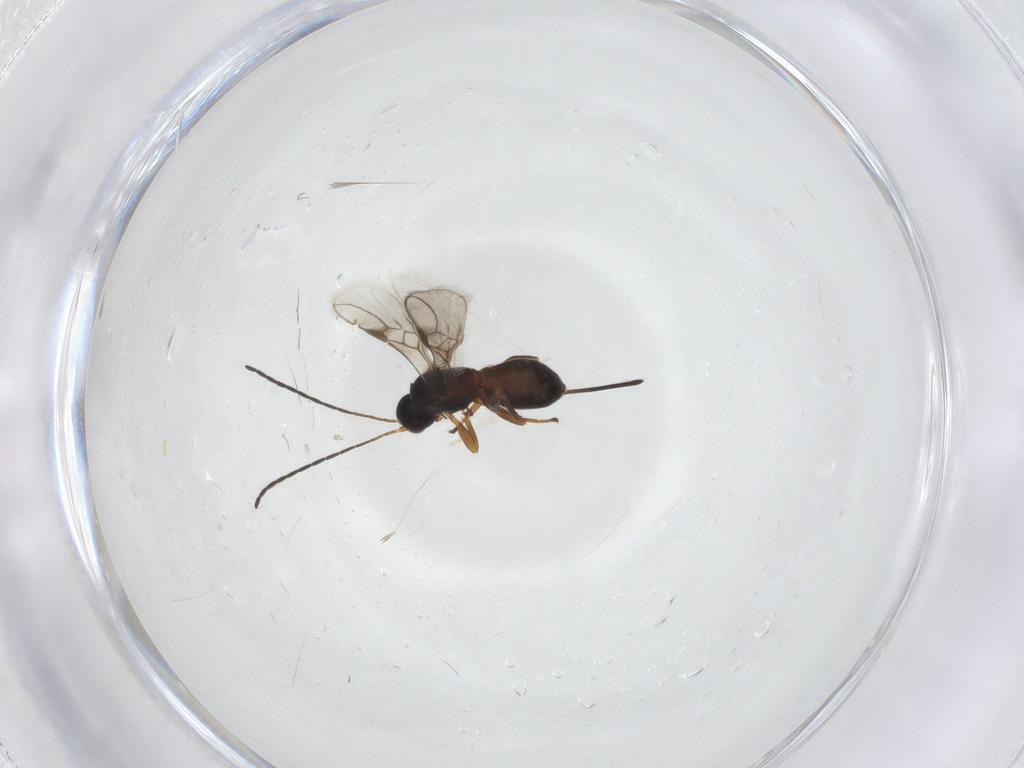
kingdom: Animalia
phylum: Arthropoda
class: Insecta
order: Hymenoptera
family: Braconidae
